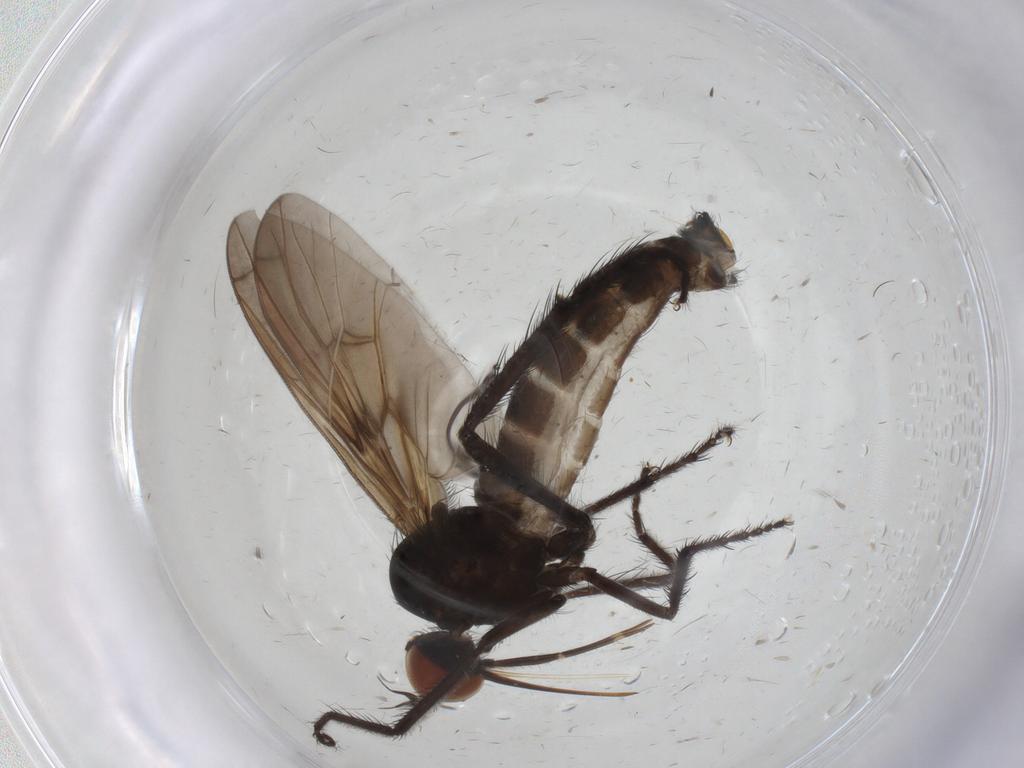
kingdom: Animalia
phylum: Arthropoda
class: Insecta
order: Diptera
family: Empididae
